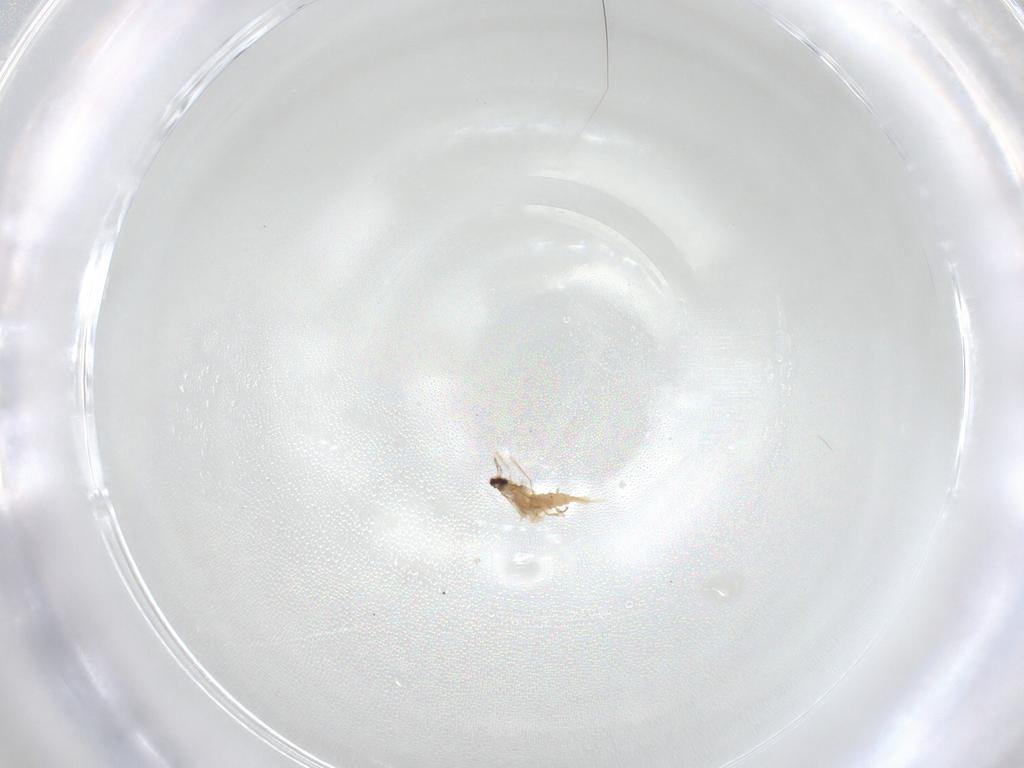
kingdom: Animalia
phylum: Arthropoda
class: Insecta
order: Diptera
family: Cecidomyiidae
